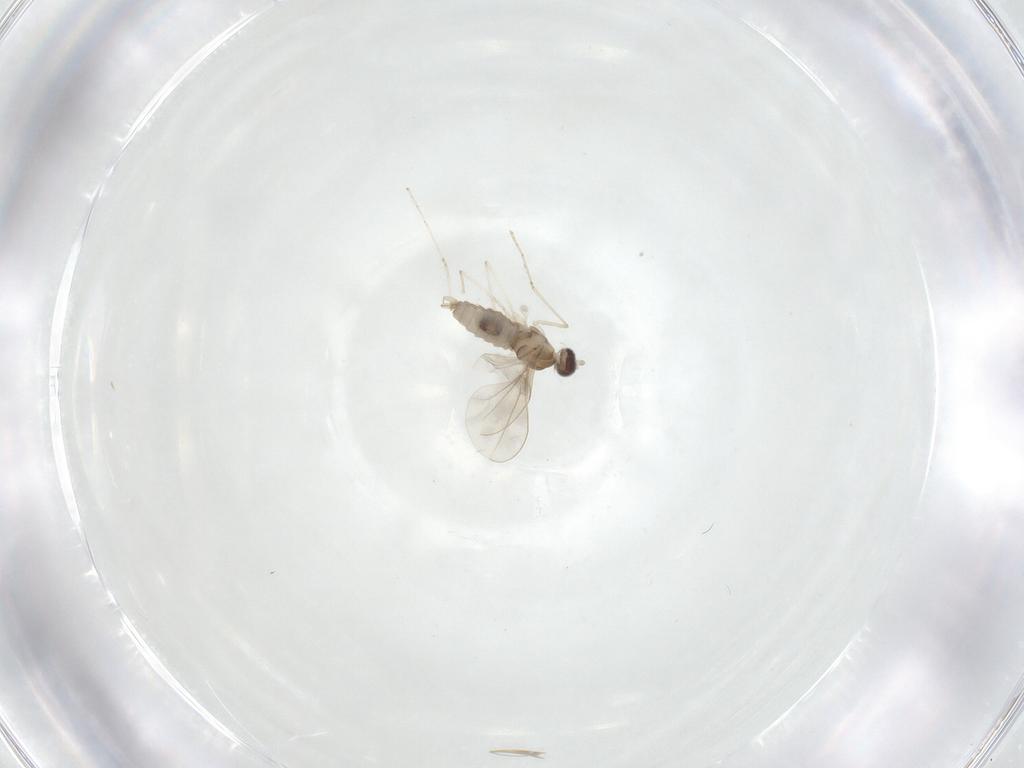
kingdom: Animalia
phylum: Arthropoda
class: Insecta
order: Diptera
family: Cecidomyiidae
